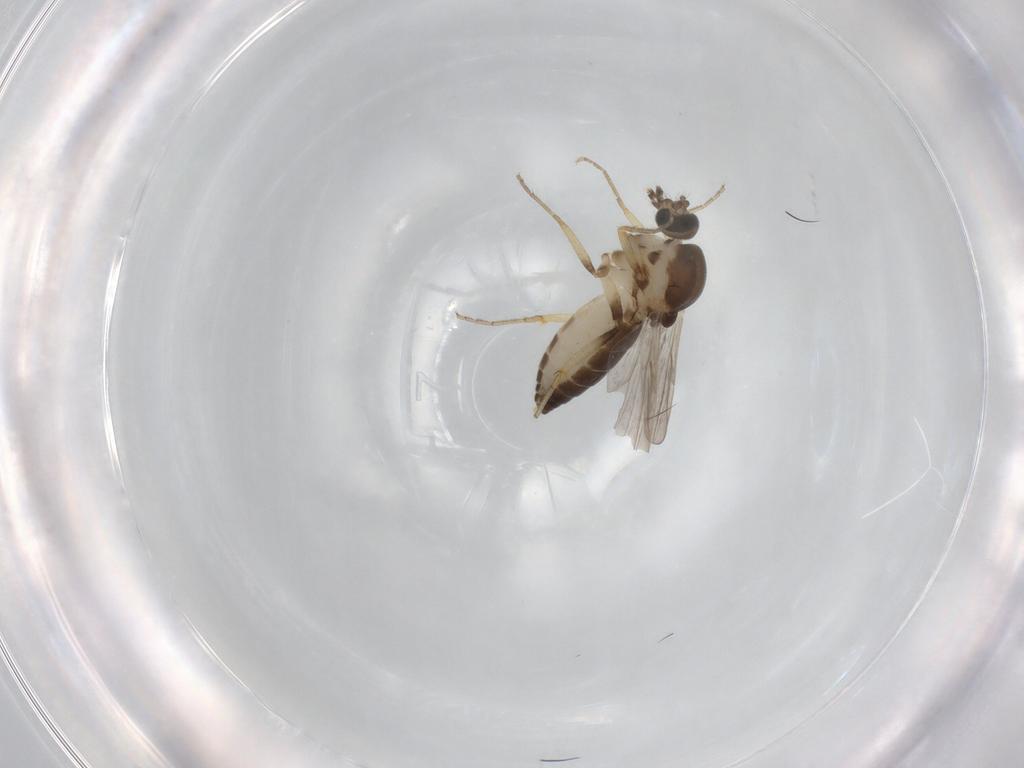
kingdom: Animalia
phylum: Arthropoda
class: Insecta
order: Diptera
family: Ceratopogonidae
